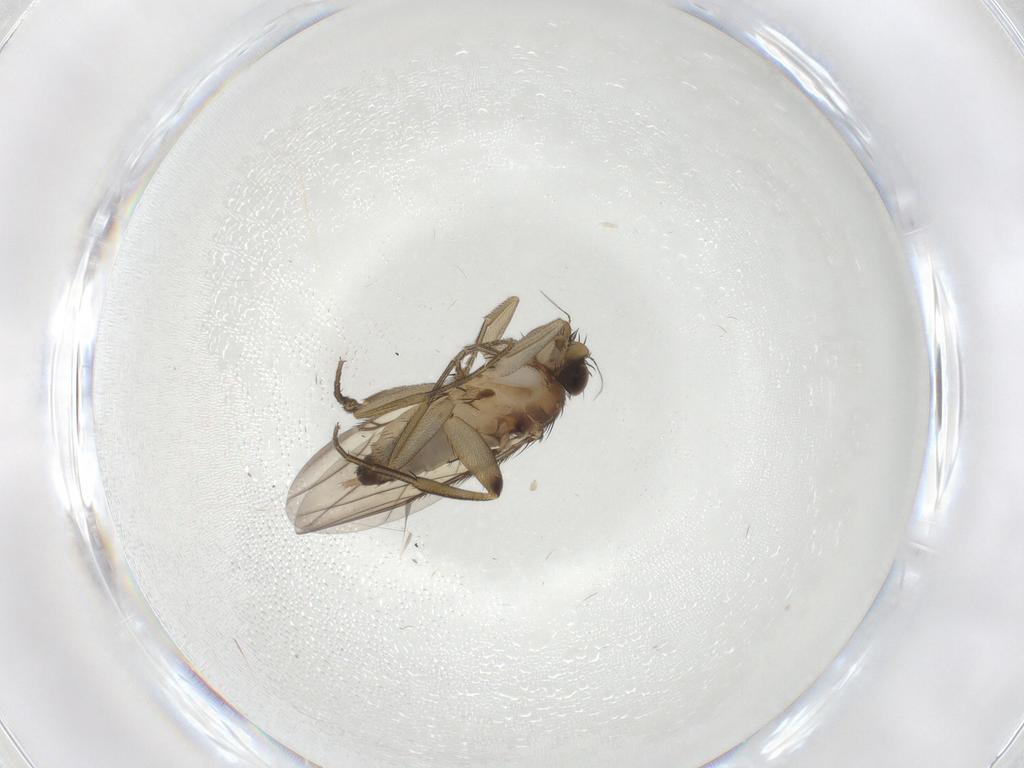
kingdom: Animalia
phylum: Arthropoda
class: Insecta
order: Diptera
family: Phoridae
